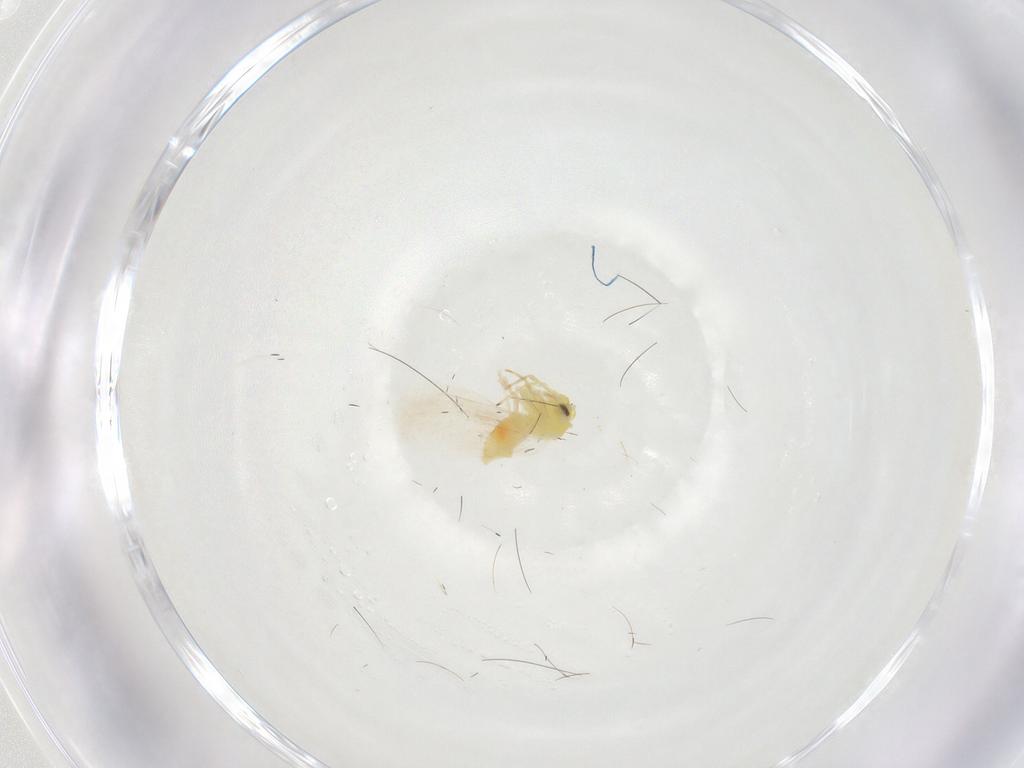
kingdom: Animalia
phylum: Arthropoda
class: Insecta
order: Hemiptera
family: Aleyrodidae
